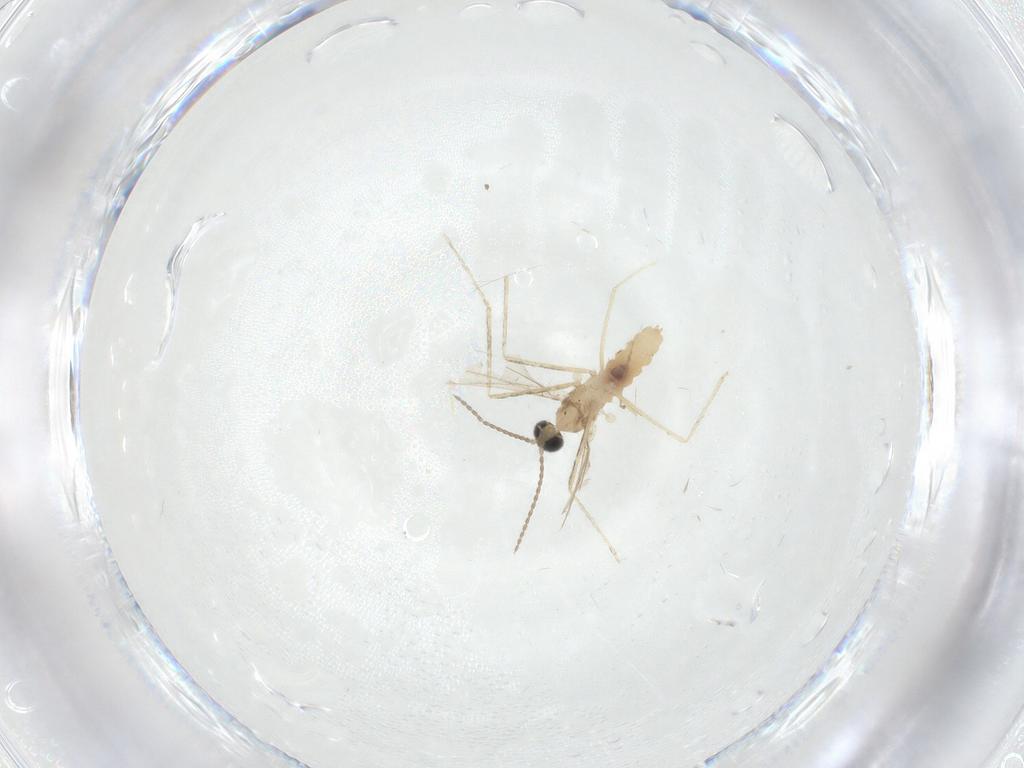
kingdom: Animalia
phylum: Arthropoda
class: Insecta
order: Diptera
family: Cecidomyiidae
